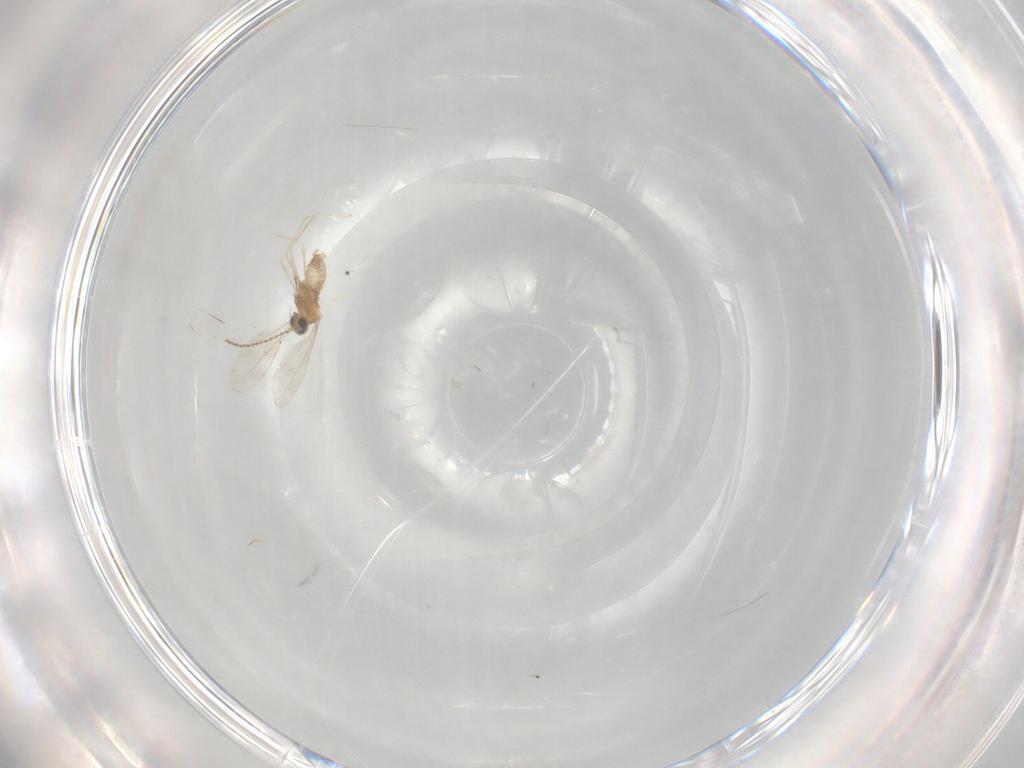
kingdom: Animalia
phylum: Arthropoda
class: Insecta
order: Diptera
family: Cecidomyiidae
